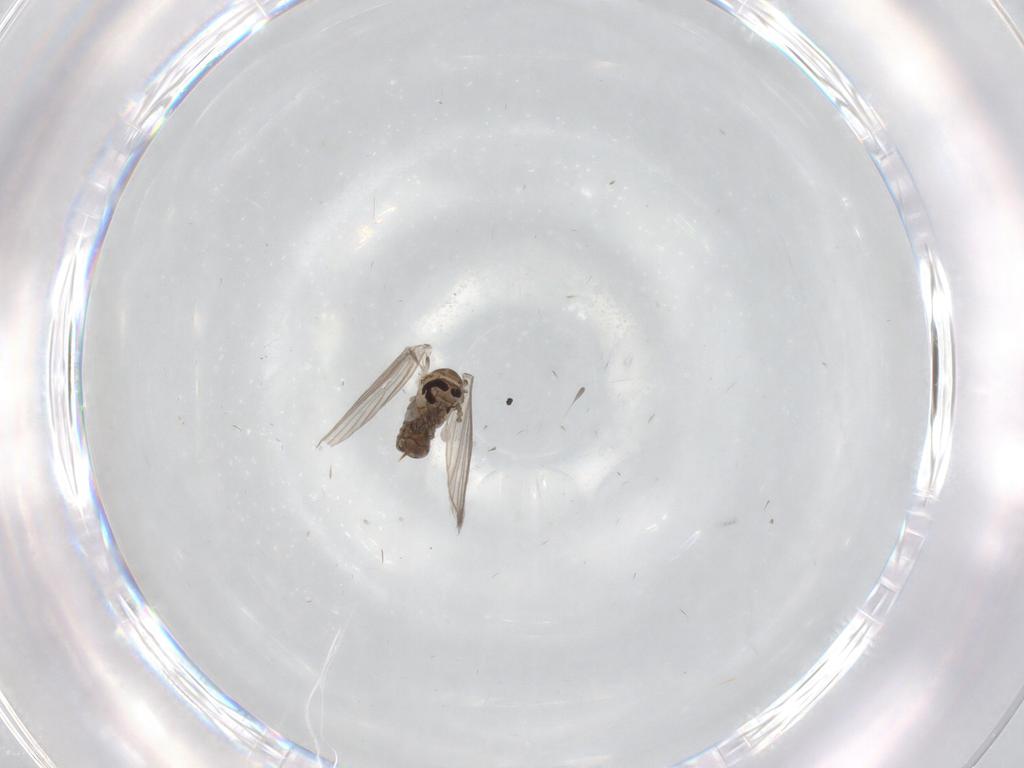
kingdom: Animalia
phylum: Arthropoda
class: Insecta
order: Diptera
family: Psychodidae
